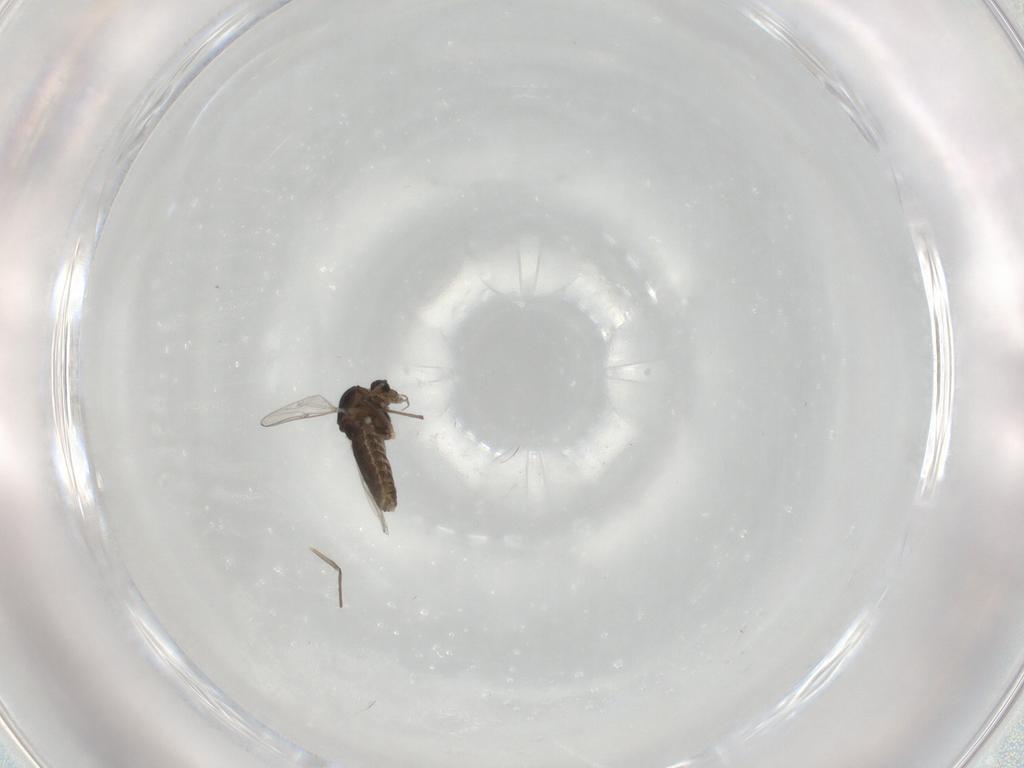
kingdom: Animalia
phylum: Arthropoda
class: Insecta
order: Diptera
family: Chironomidae
